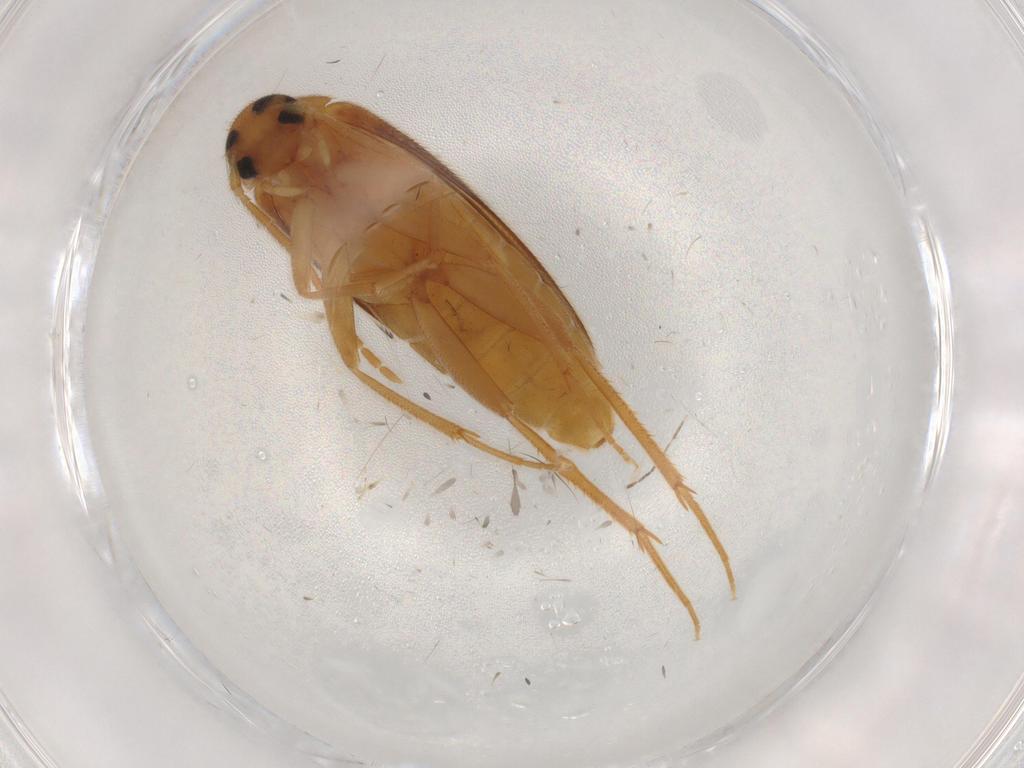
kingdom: Animalia
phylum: Arthropoda
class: Insecta
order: Coleoptera
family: Scraptiidae
